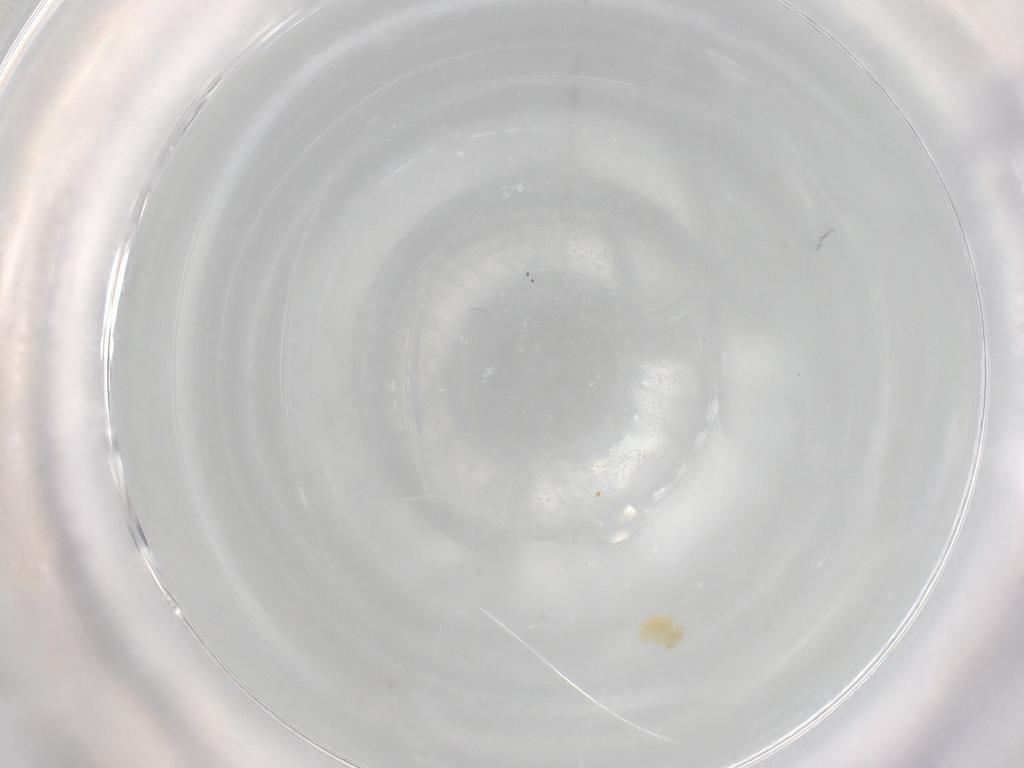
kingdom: Animalia
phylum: Arthropoda
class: Arachnida
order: Trombidiformes
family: Eupodidae
